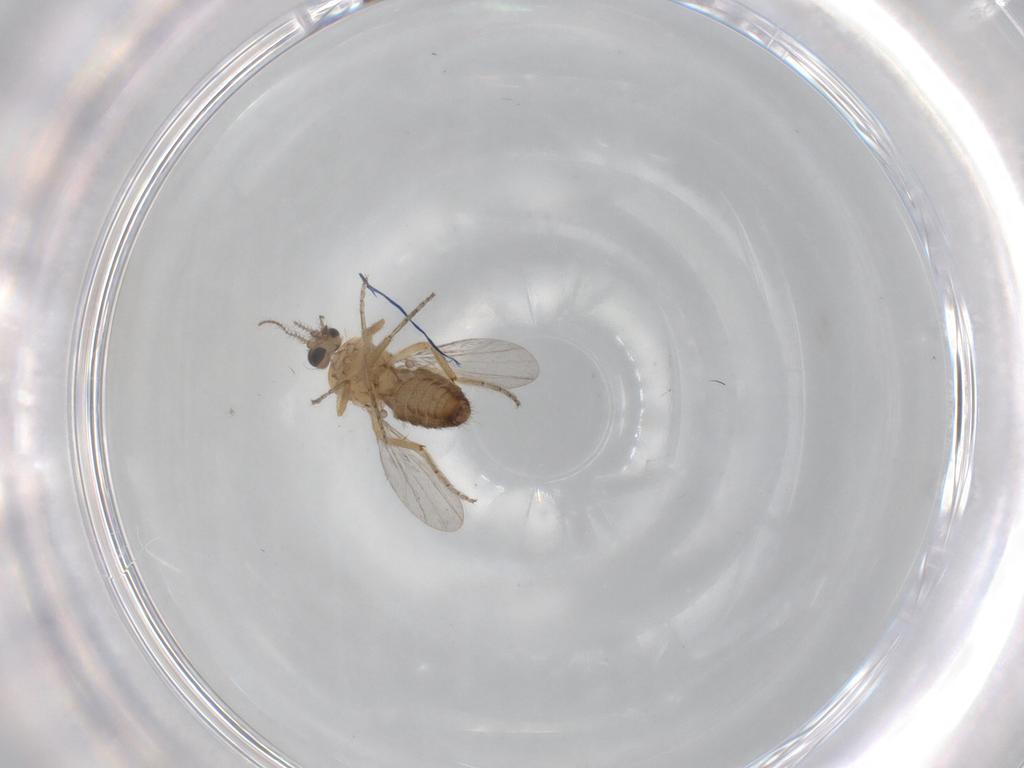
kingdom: Animalia
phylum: Arthropoda
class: Insecta
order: Diptera
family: Ceratopogonidae
